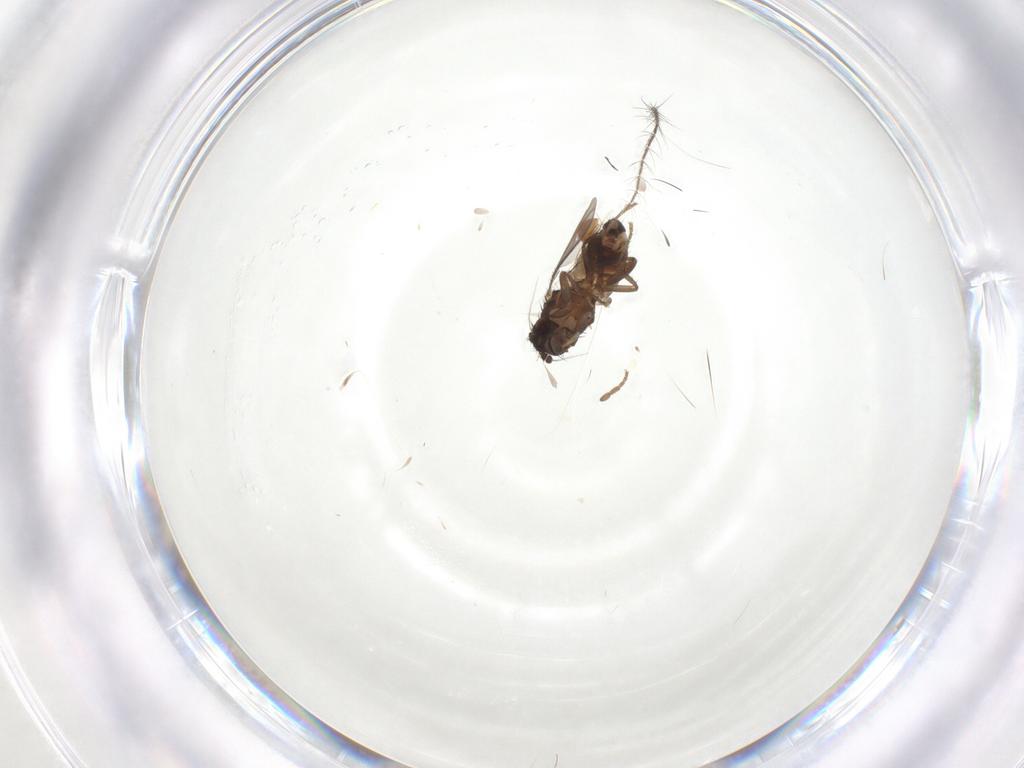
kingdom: Animalia
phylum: Arthropoda
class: Insecta
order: Diptera
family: Sphaeroceridae
